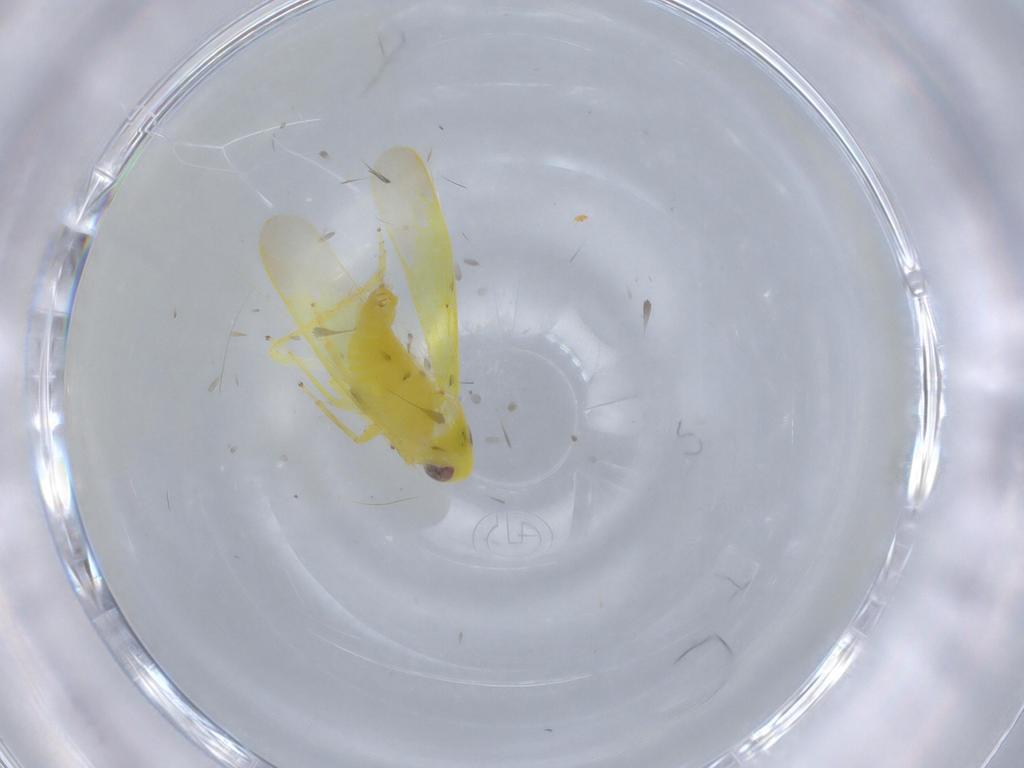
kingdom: Animalia
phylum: Arthropoda
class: Insecta
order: Hemiptera
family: Cicadellidae
